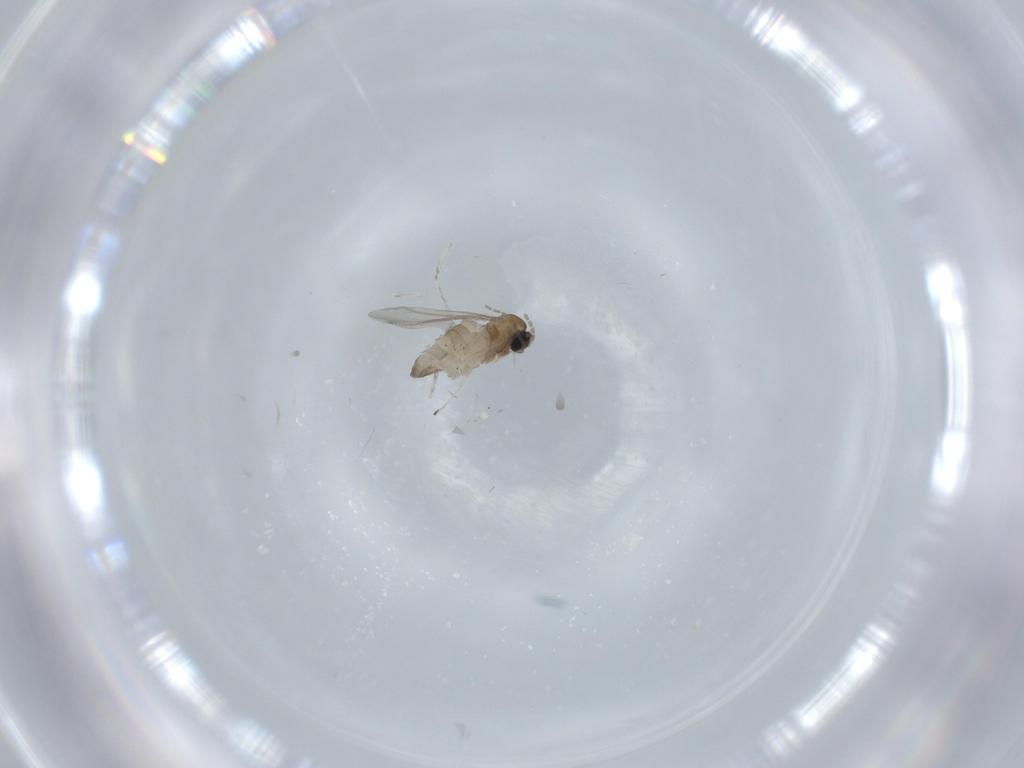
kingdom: Animalia
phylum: Arthropoda
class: Insecta
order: Diptera
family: Cecidomyiidae
